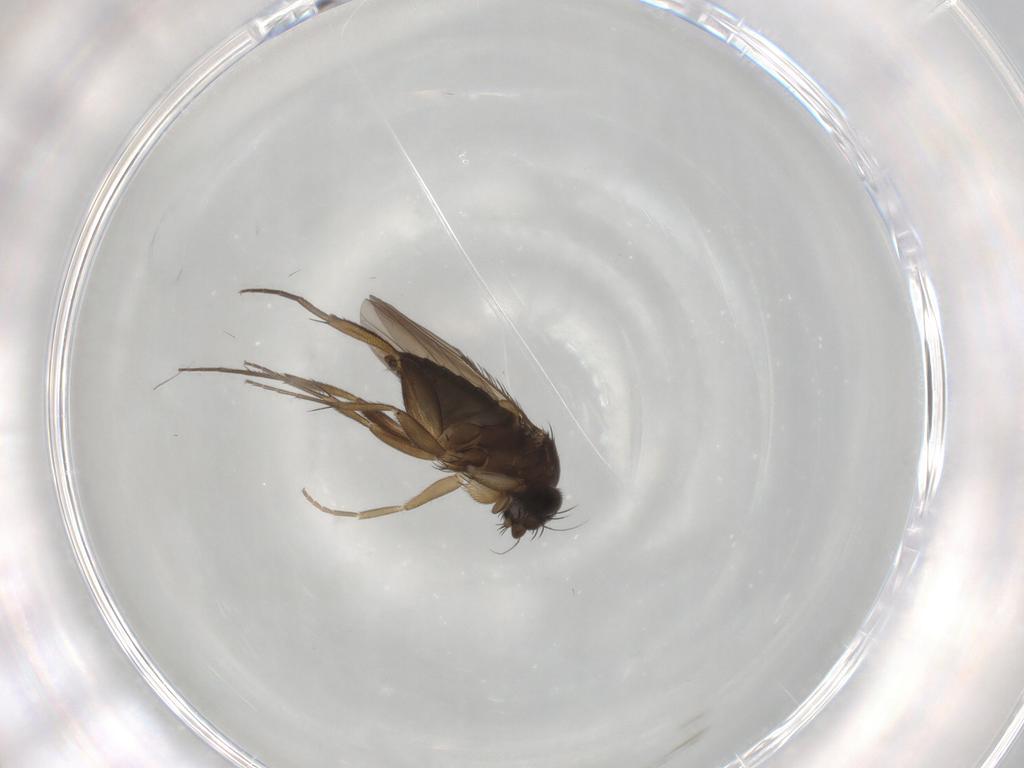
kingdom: Animalia
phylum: Arthropoda
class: Insecta
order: Diptera
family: Phoridae
